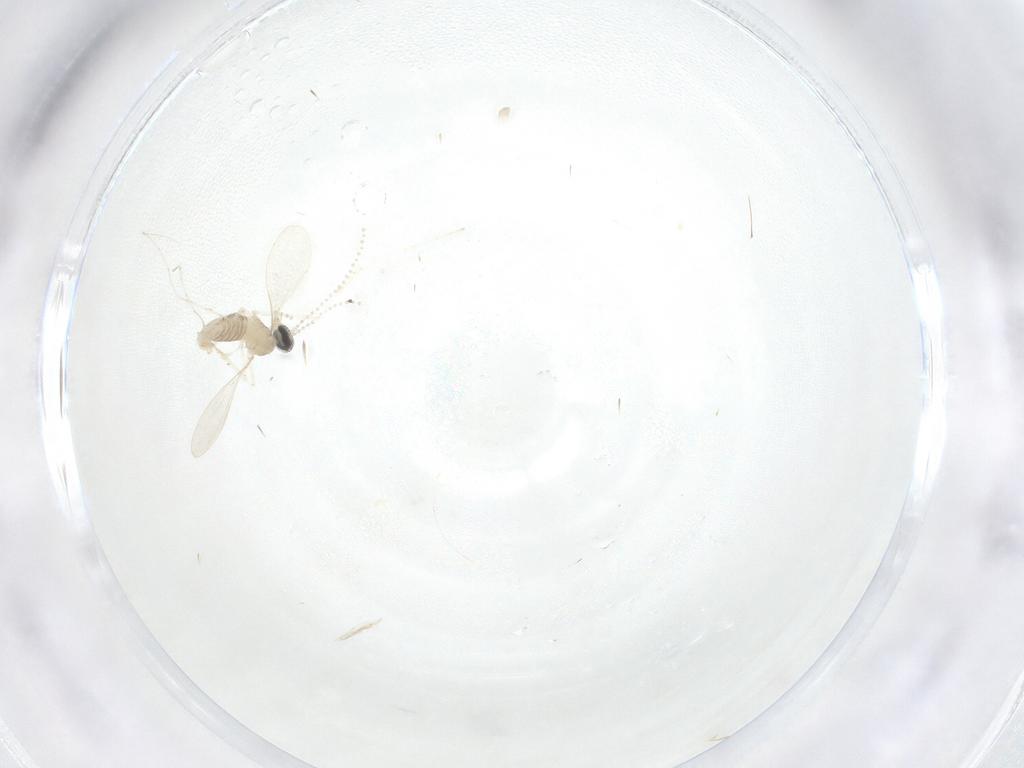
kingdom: Animalia
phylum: Arthropoda
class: Insecta
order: Diptera
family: Cecidomyiidae
